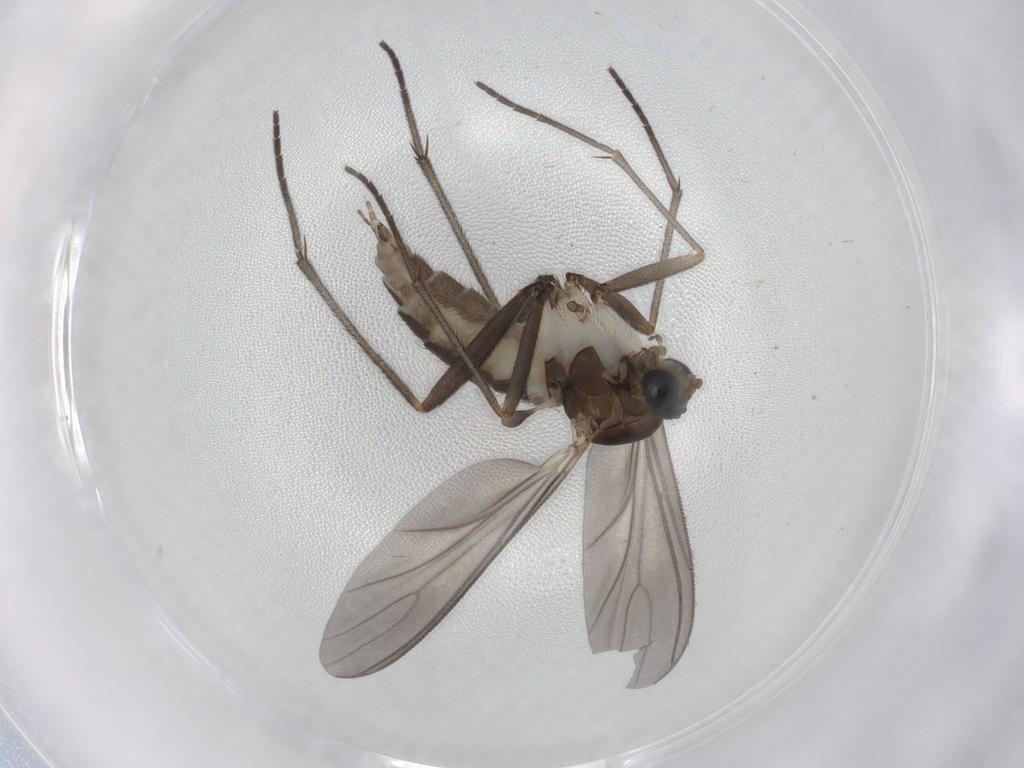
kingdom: Animalia
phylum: Arthropoda
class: Insecta
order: Diptera
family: Sciaridae
